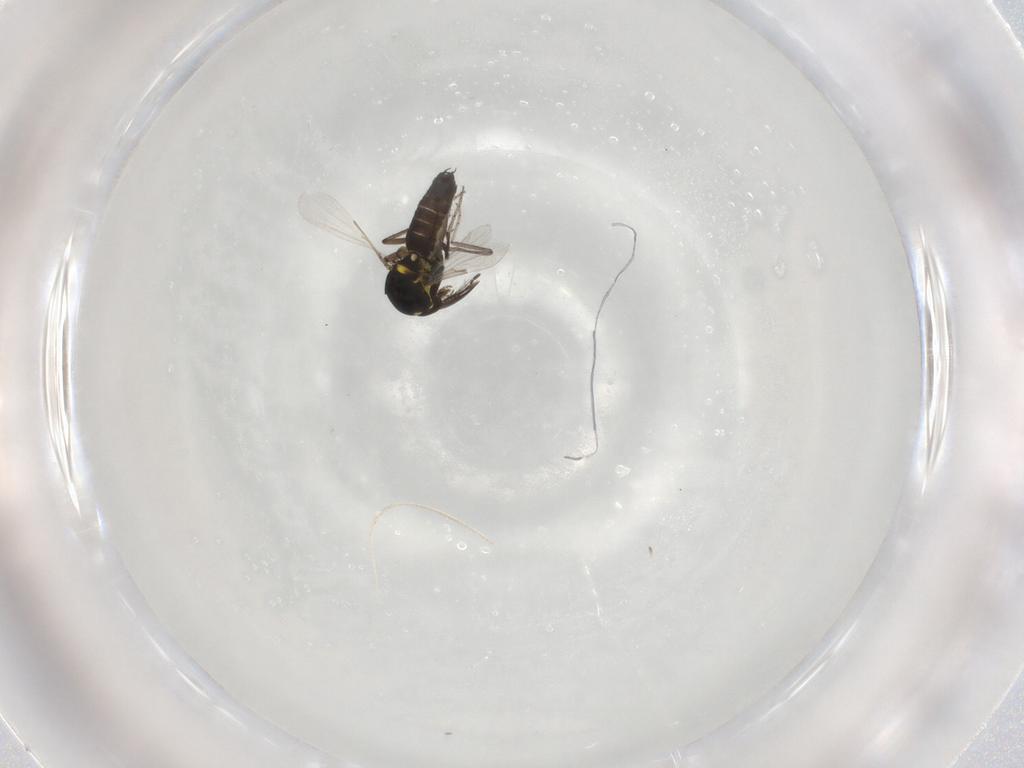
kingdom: Animalia
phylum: Arthropoda
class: Insecta
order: Diptera
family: Ceratopogonidae
